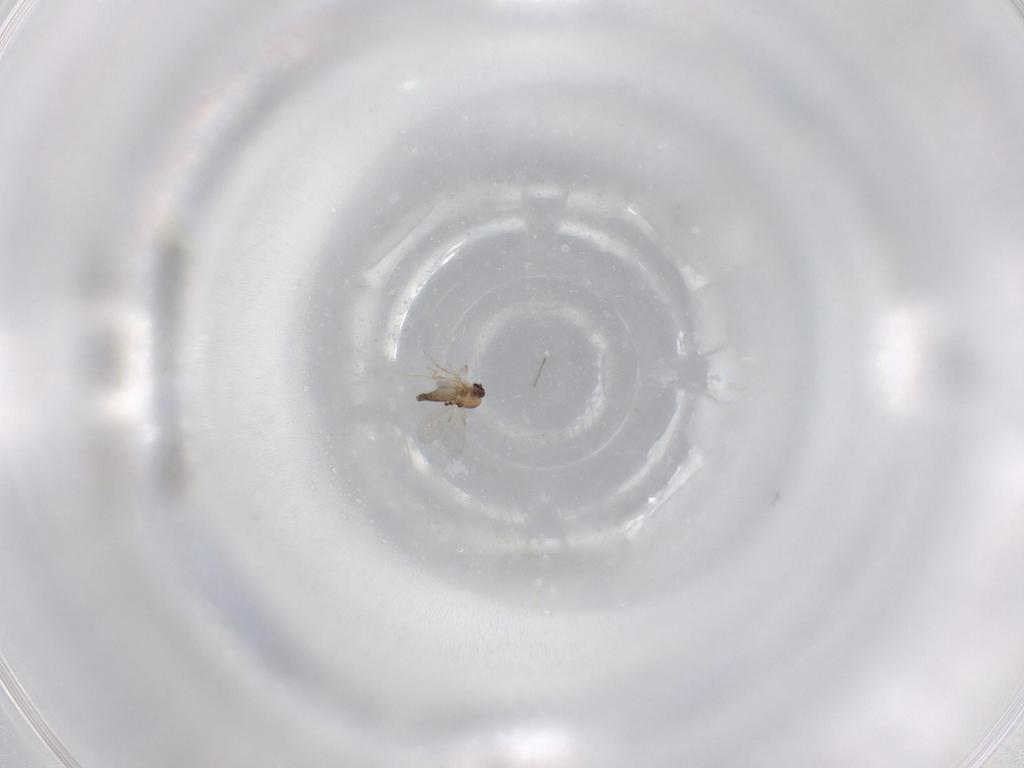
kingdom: Animalia
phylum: Arthropoda
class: Insecta
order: Diptera
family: Ceratopogonidae
